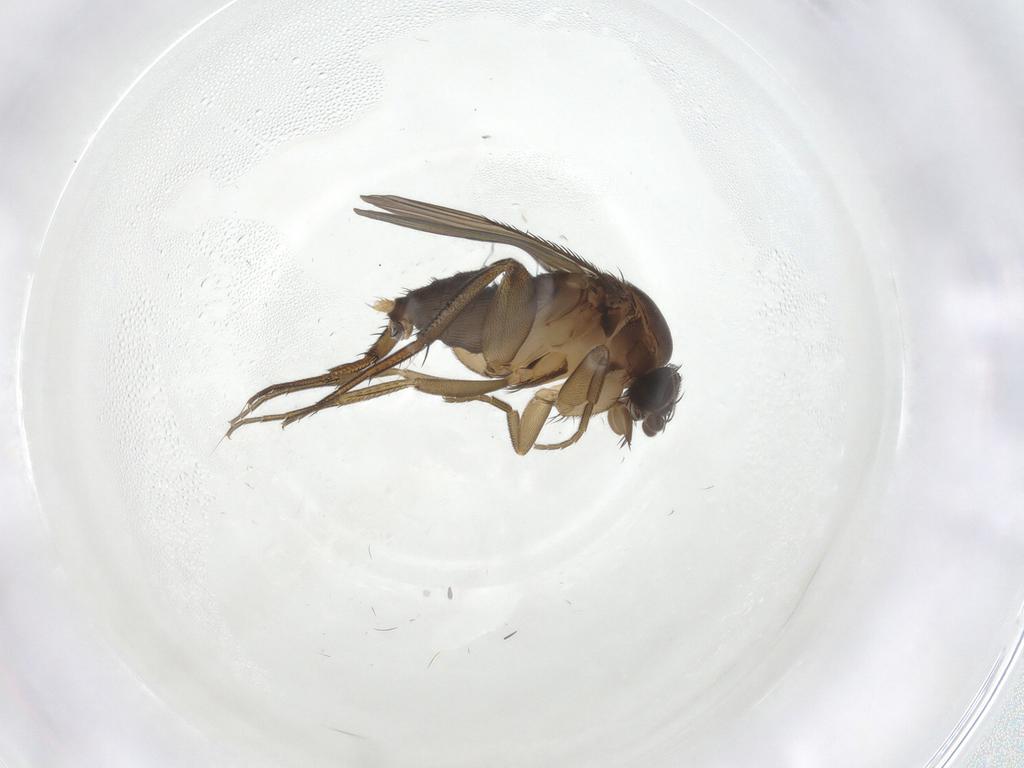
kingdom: Animalia
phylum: Arthropoda
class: Insecta
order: Diptera
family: Phoridae
